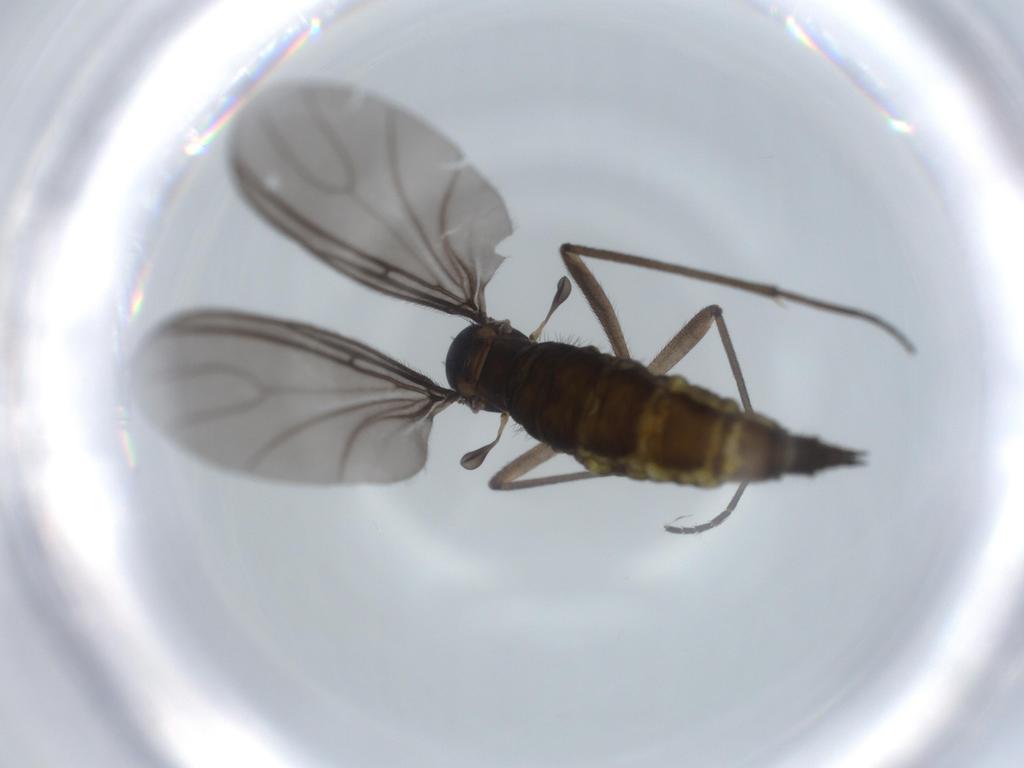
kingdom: Animalia
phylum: Arthropoda
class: Insecta
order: Diptera
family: Sciaridae
